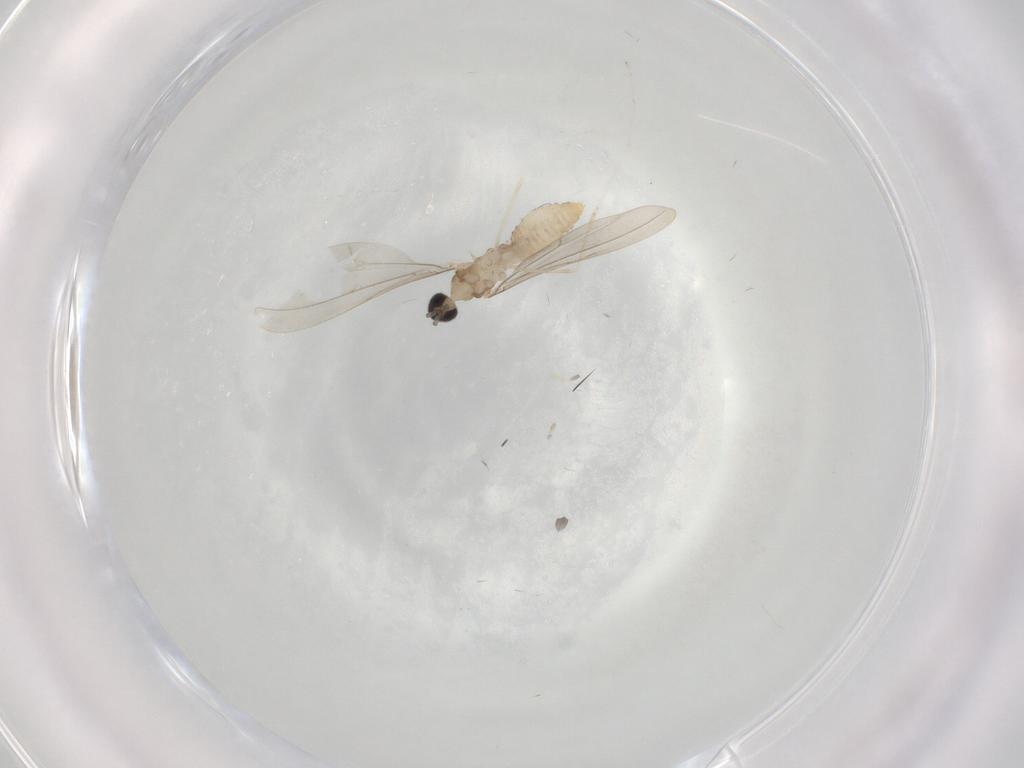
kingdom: Animalia
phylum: Arthropoda
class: Insecta
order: Diptera
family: Cecidomyiidae
